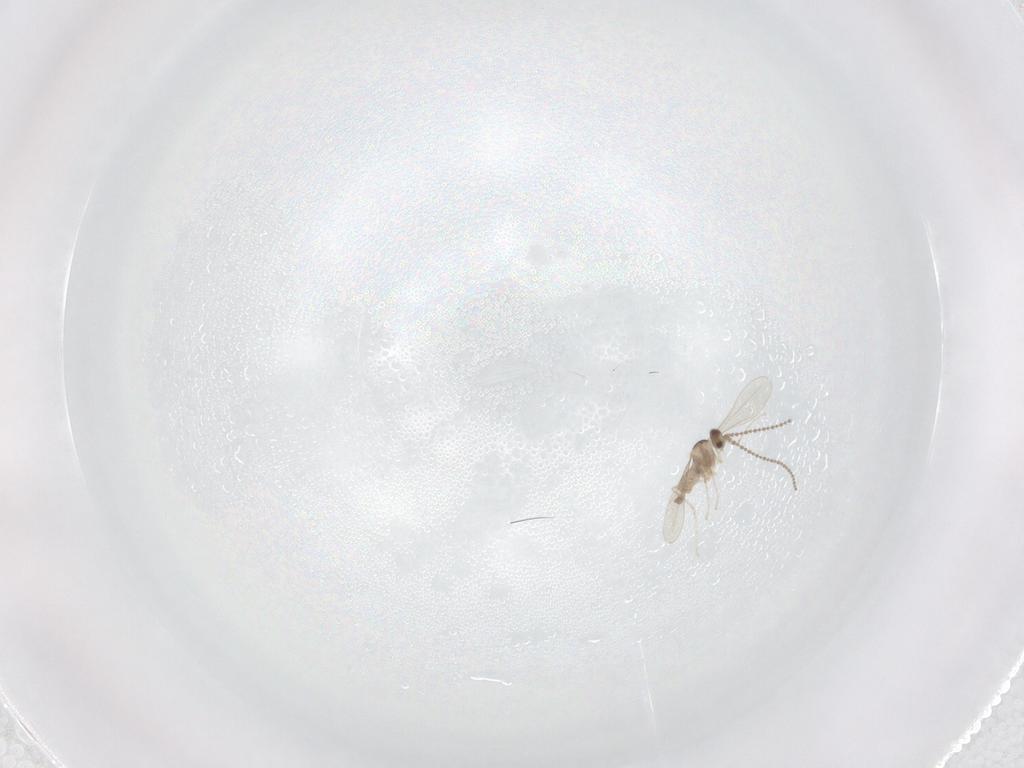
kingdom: Animalia
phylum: Arthropoda
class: Insecta
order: Diptera
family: Cecidomyiidae
